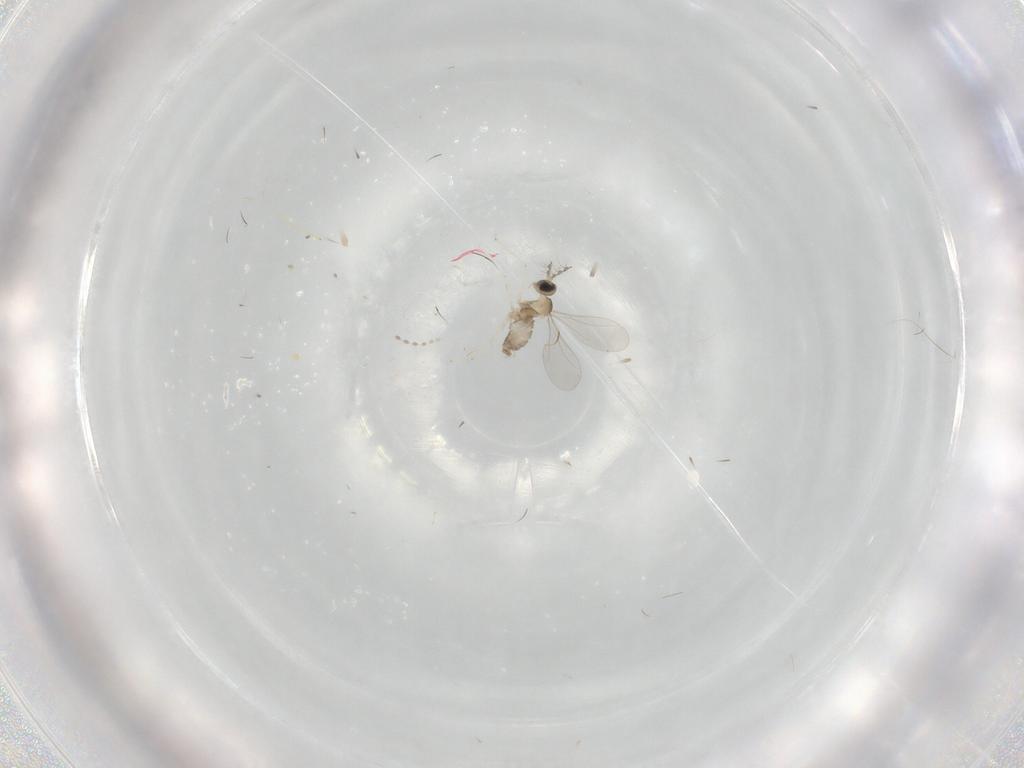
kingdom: Animalia
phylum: Arthropoda
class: Insecta
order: Diptera
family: Cecidomyiidae
